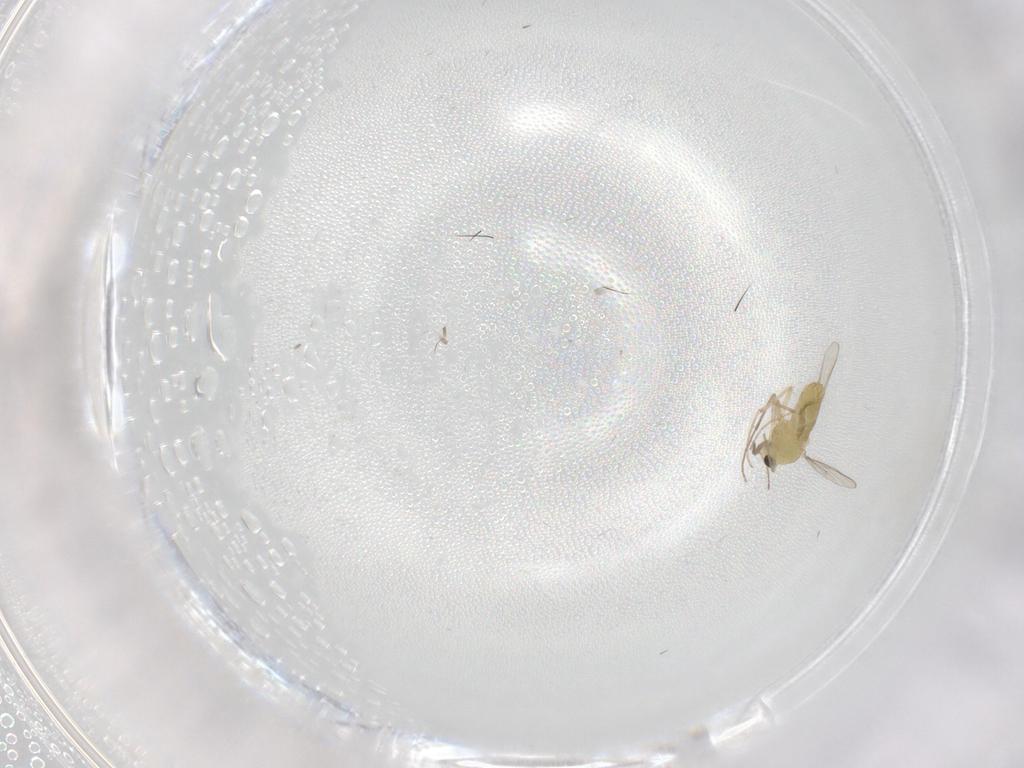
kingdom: Animalia
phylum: Arthropoda
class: Insecta
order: Diptera
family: Chironomidae
